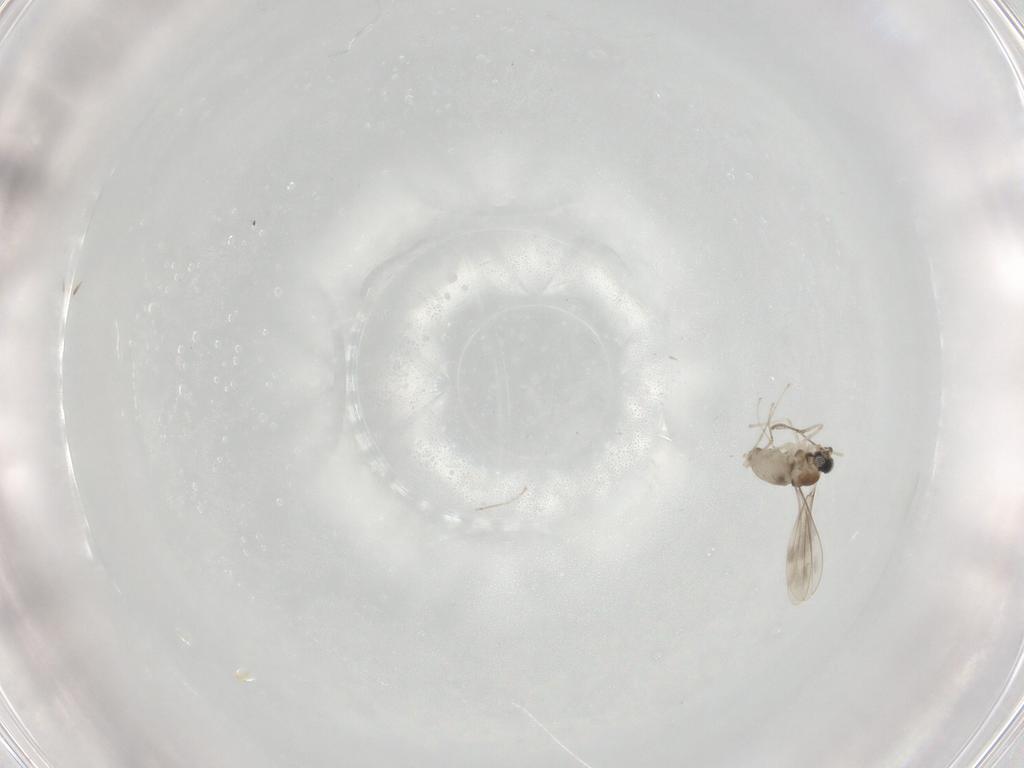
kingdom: Animalia
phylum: Arthropoda
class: Insecta
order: Diptera
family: Cecidomyiidae
